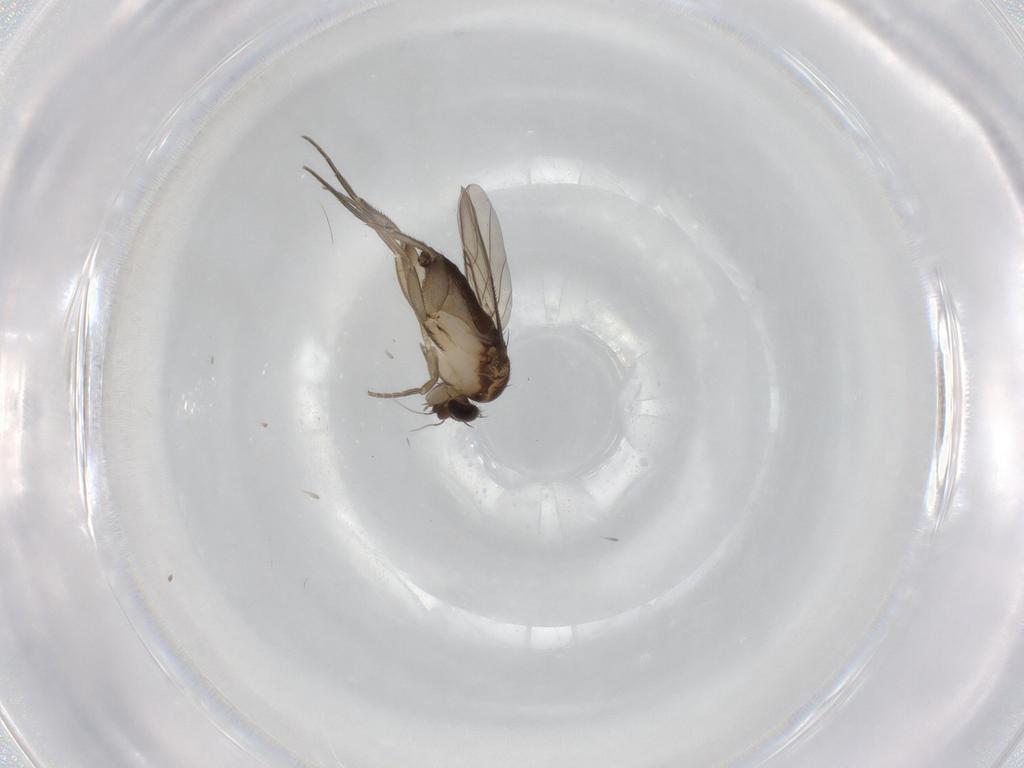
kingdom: Animalia
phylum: Arthropoda
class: Insecta
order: Diptera
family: Phoridae
